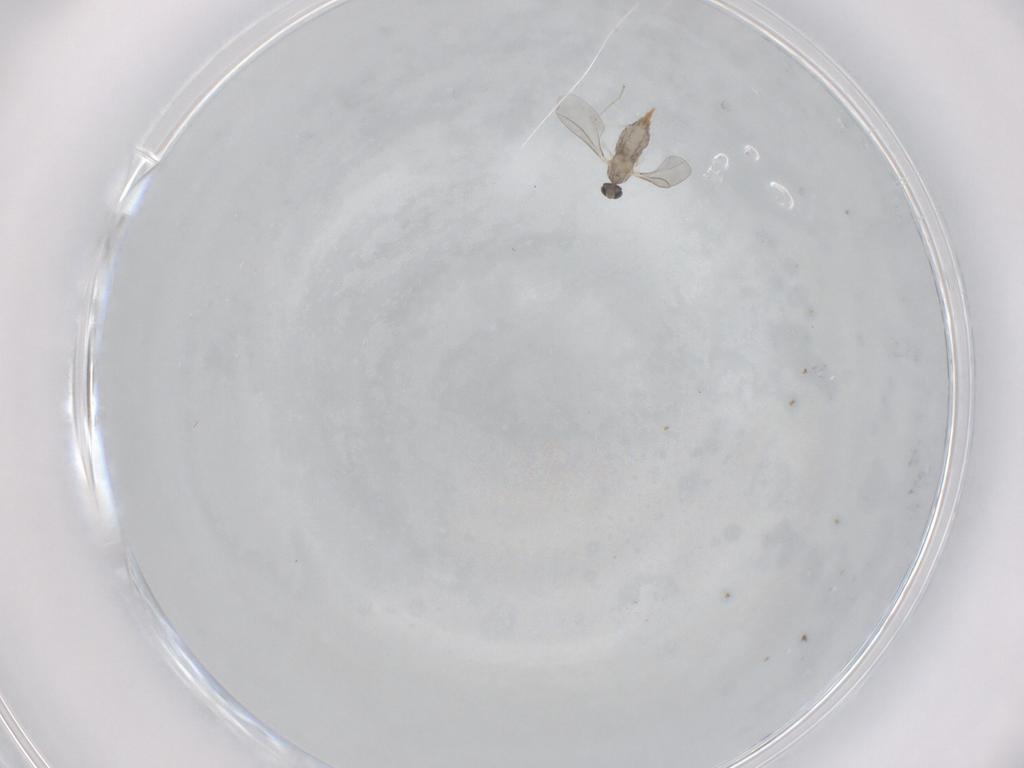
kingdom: Animalia
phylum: Arthropoda
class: Insecta
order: Diptera
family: Cecidomyiidae
